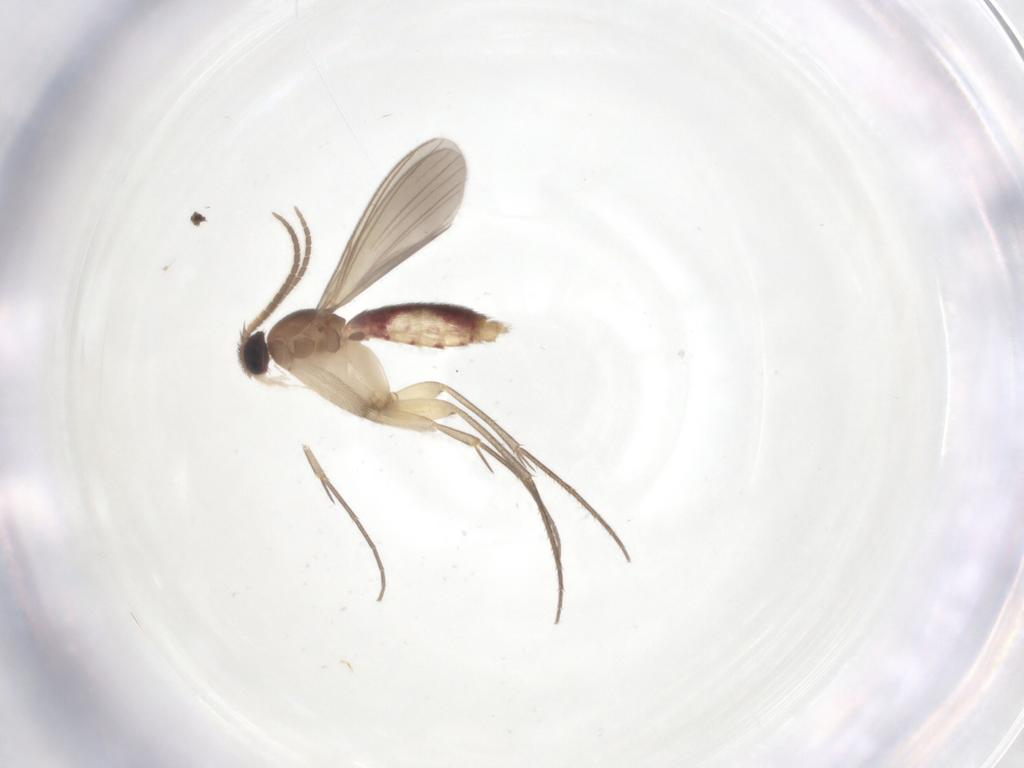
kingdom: Animalia
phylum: Arthropoda
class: Insecta
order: Diptera
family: Mycetophilidae
